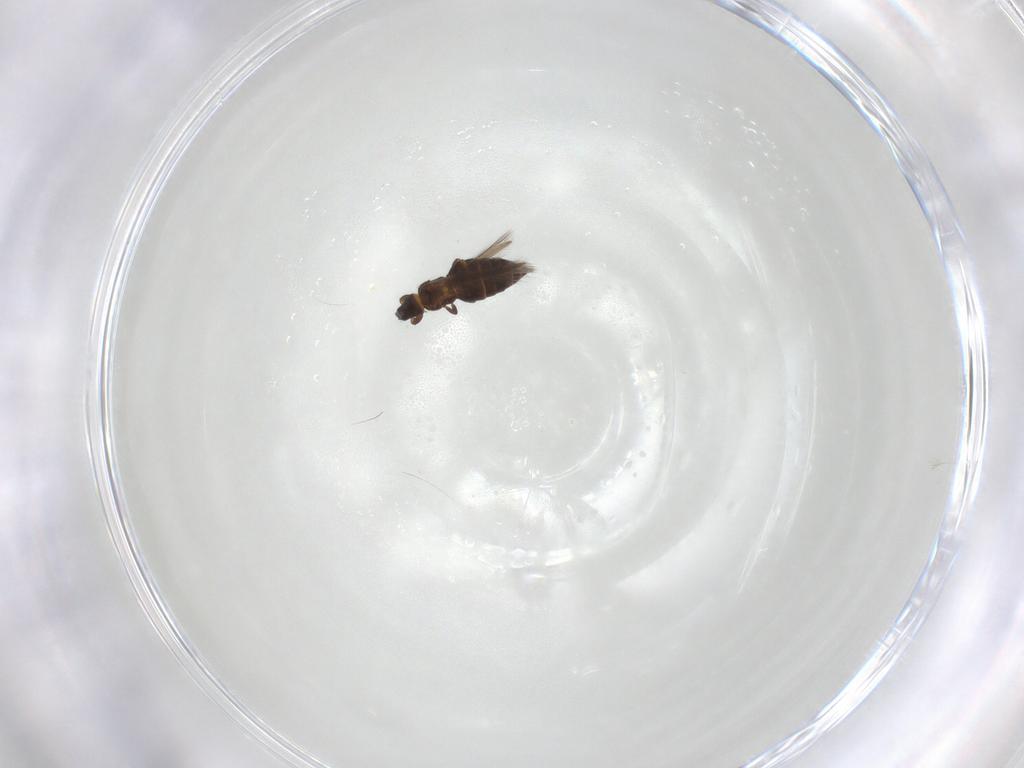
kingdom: Animalia
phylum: Arthropoda
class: Insecta
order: Thysanoptera
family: Heterothripidae
